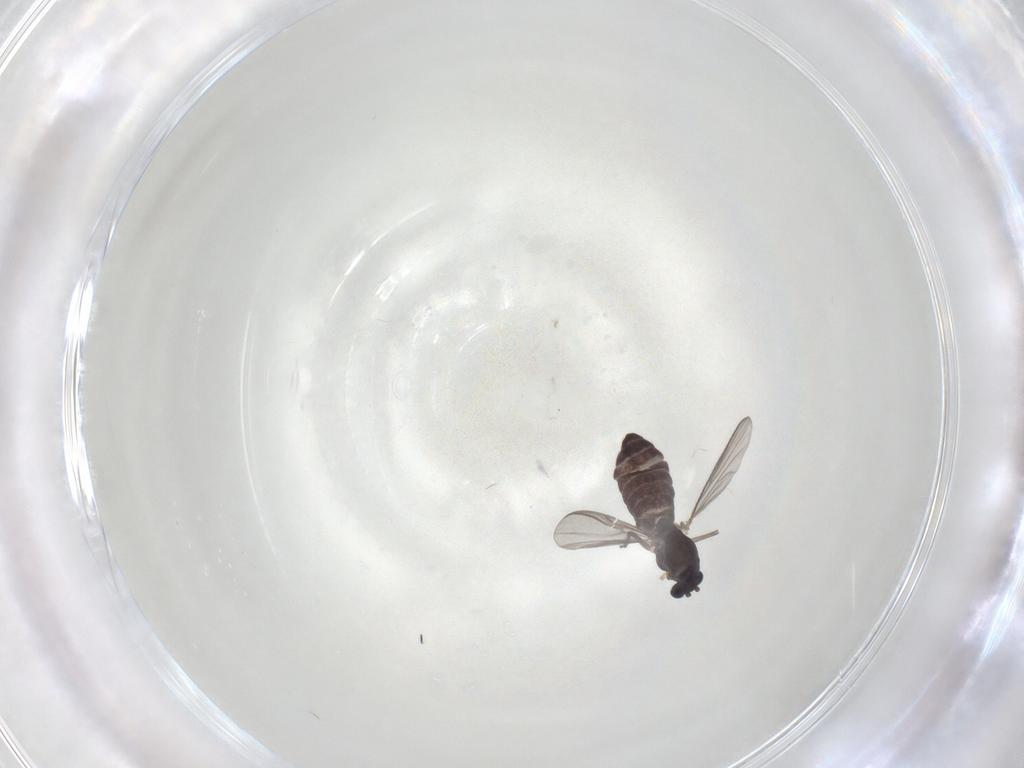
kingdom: Animalia
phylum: Arthropoda
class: Insecta
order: Diptera
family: Chironomidae
